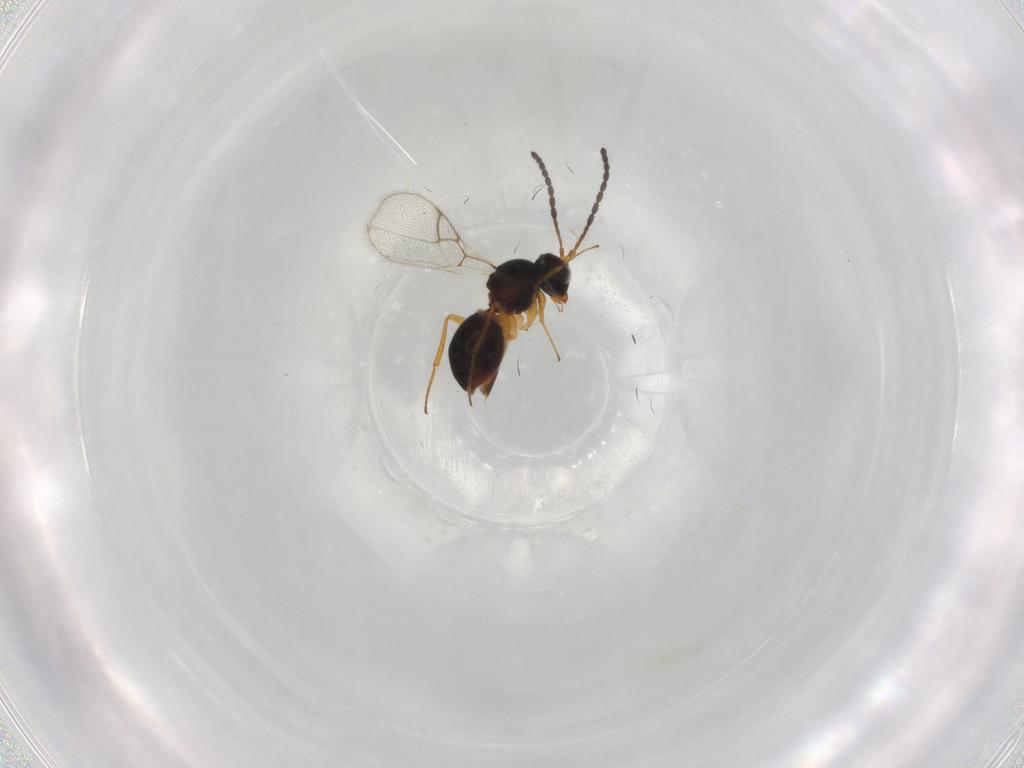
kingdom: Animalia
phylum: Arthropoda
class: Insecta
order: Hymenoptera
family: Figitidae
